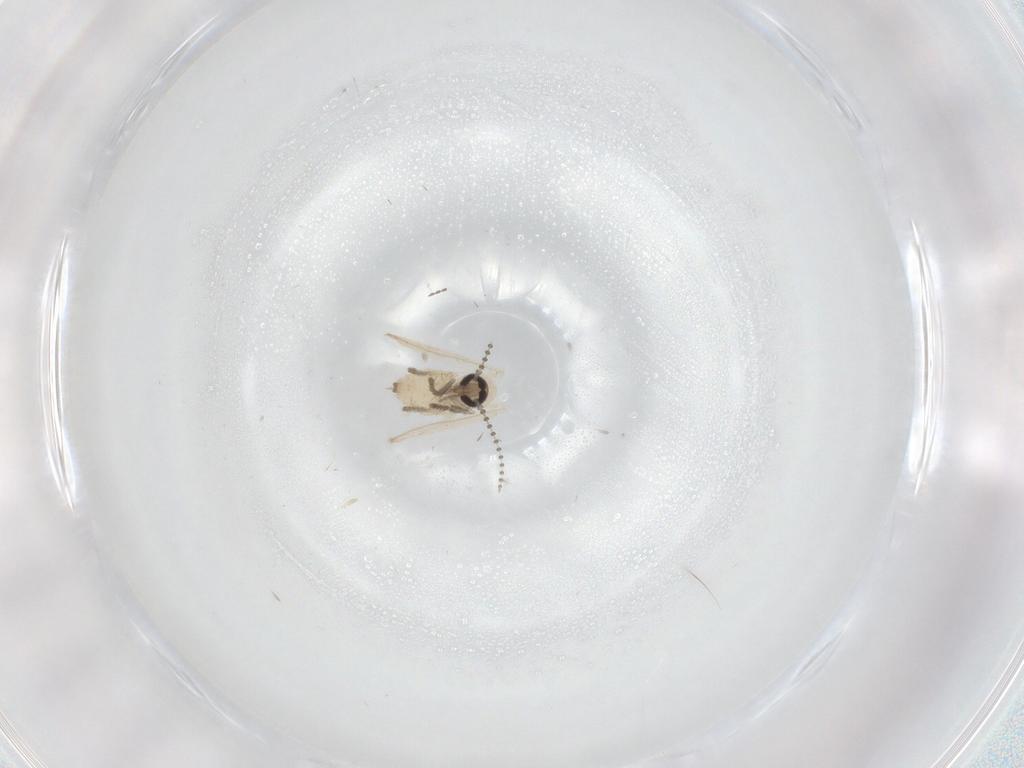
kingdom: Animalia
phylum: Arthropoda
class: Insecta
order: Diptera
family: Psychodidae
